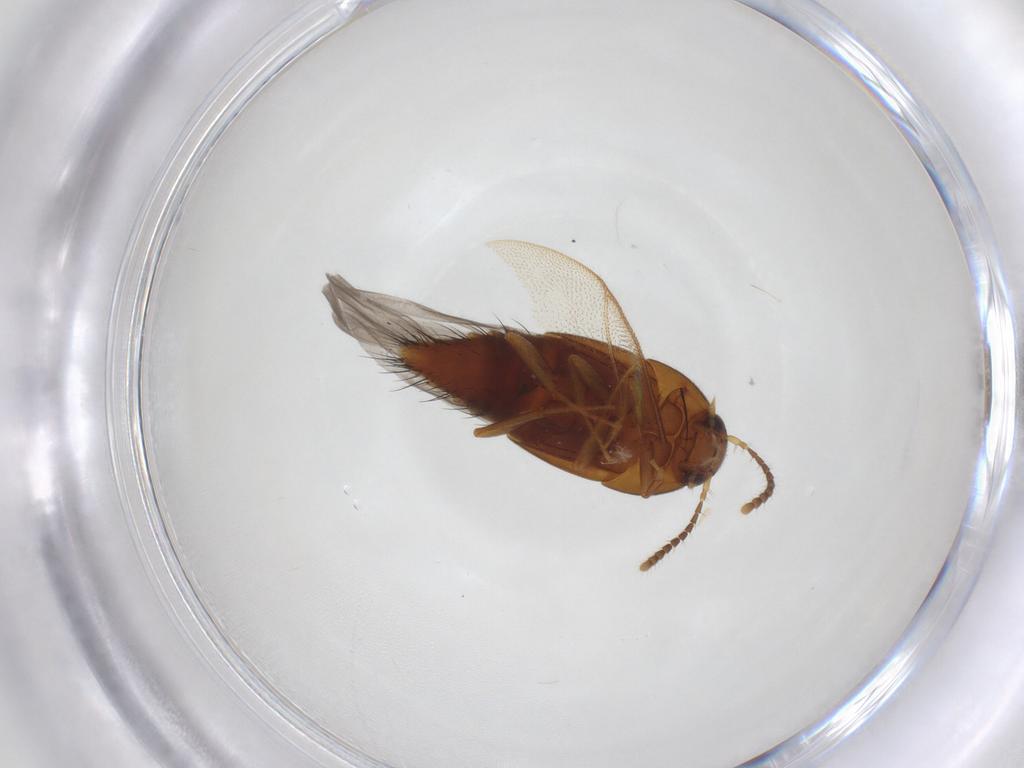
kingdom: Animalia
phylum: Arthropoda
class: Insecta
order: Coleoptera
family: Staphylinidae
